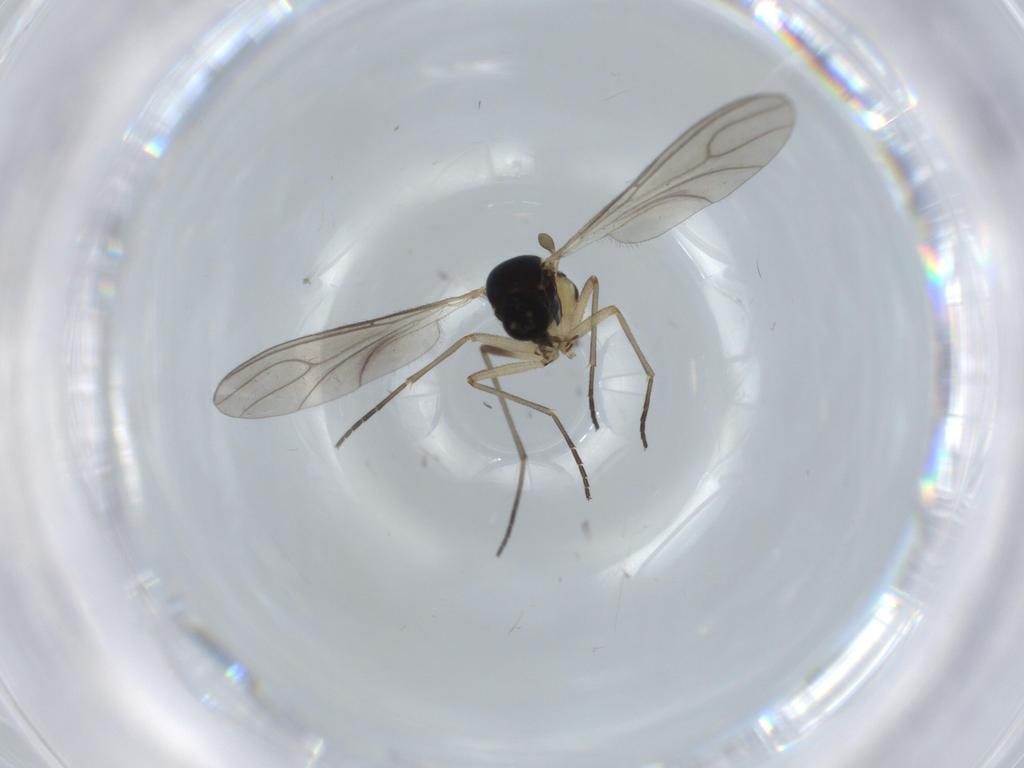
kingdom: Animalia
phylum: Arthropoda
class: Insecta
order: Diptera
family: Sciaridae
